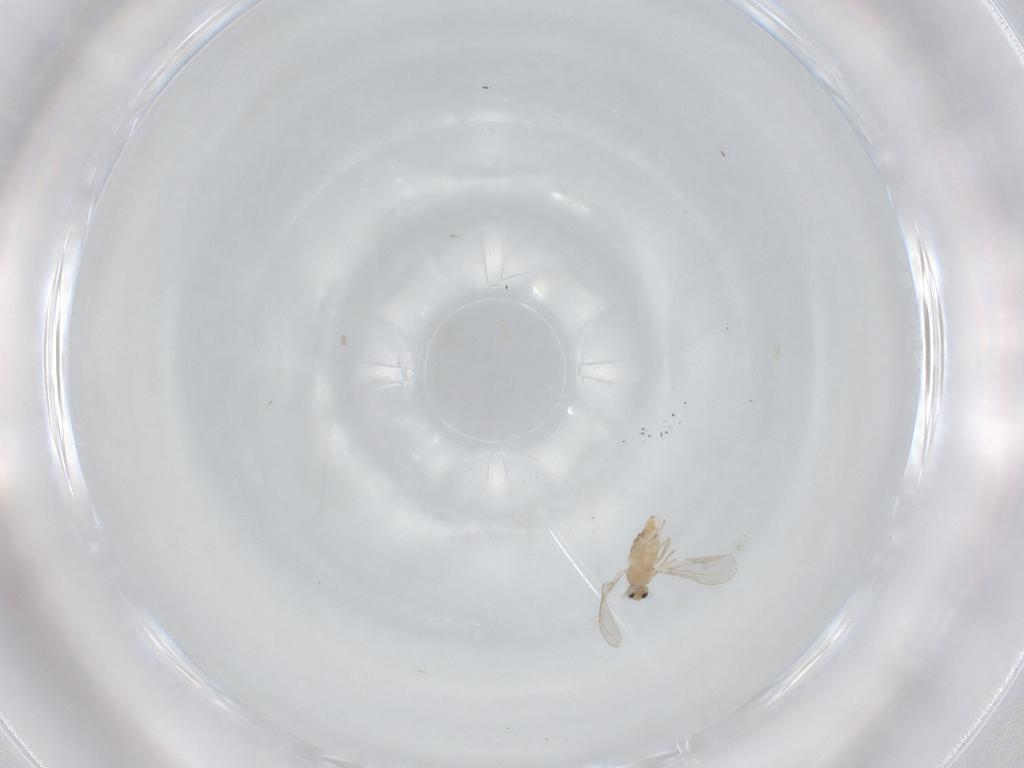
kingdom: Animalia
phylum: Arthropoda
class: Insecta
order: Diptera
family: Cecidomyiidae
